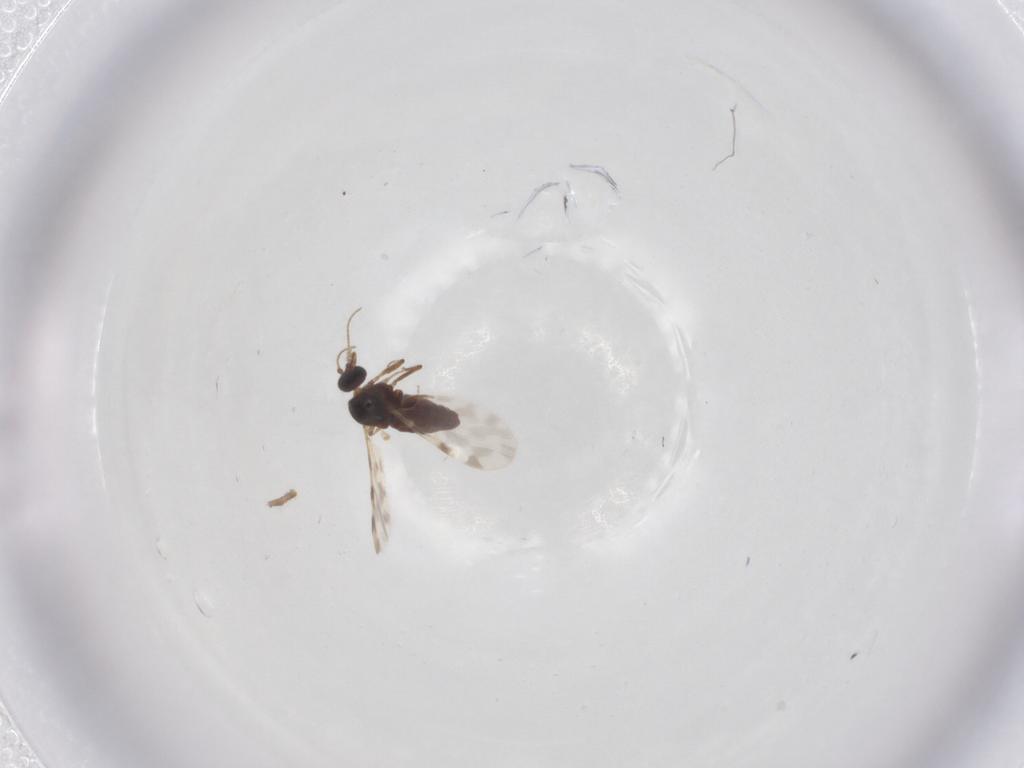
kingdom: Animalia
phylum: Arthropoda
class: Insecta
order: Diptera
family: Ceratopogonidae
